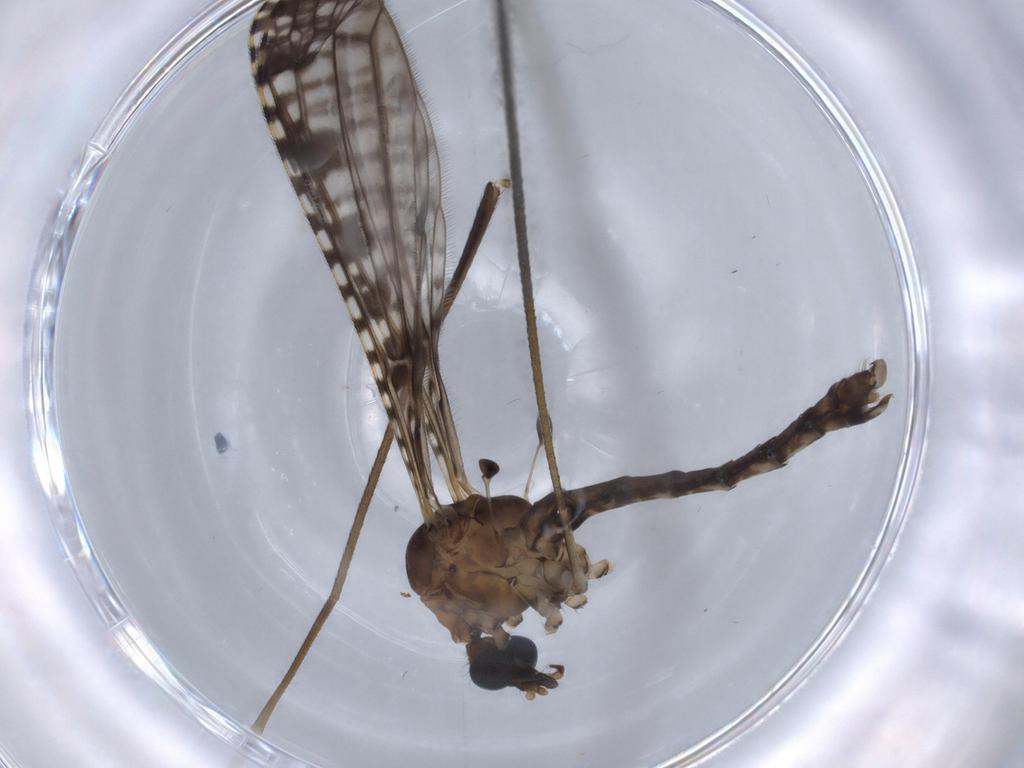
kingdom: Animalia
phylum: Arthropoda
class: Insecta
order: Diptera
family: Limoniidae
